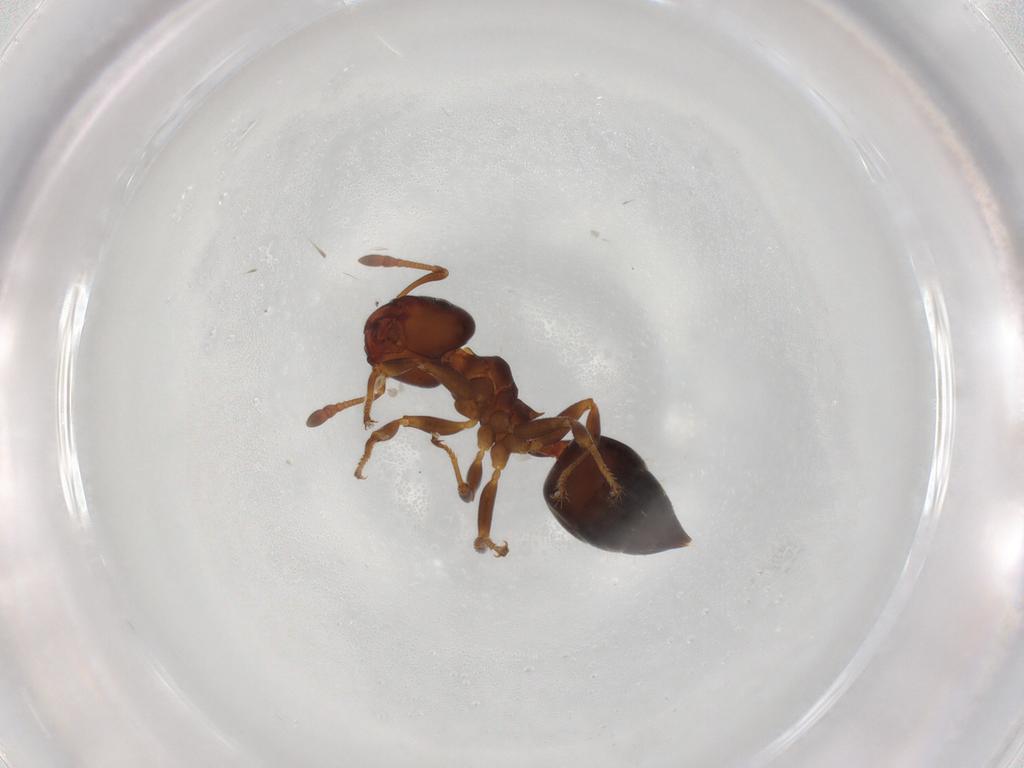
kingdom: Animalia
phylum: Arthropoda
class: Insecta
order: Hymenoptera
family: Formicidae
